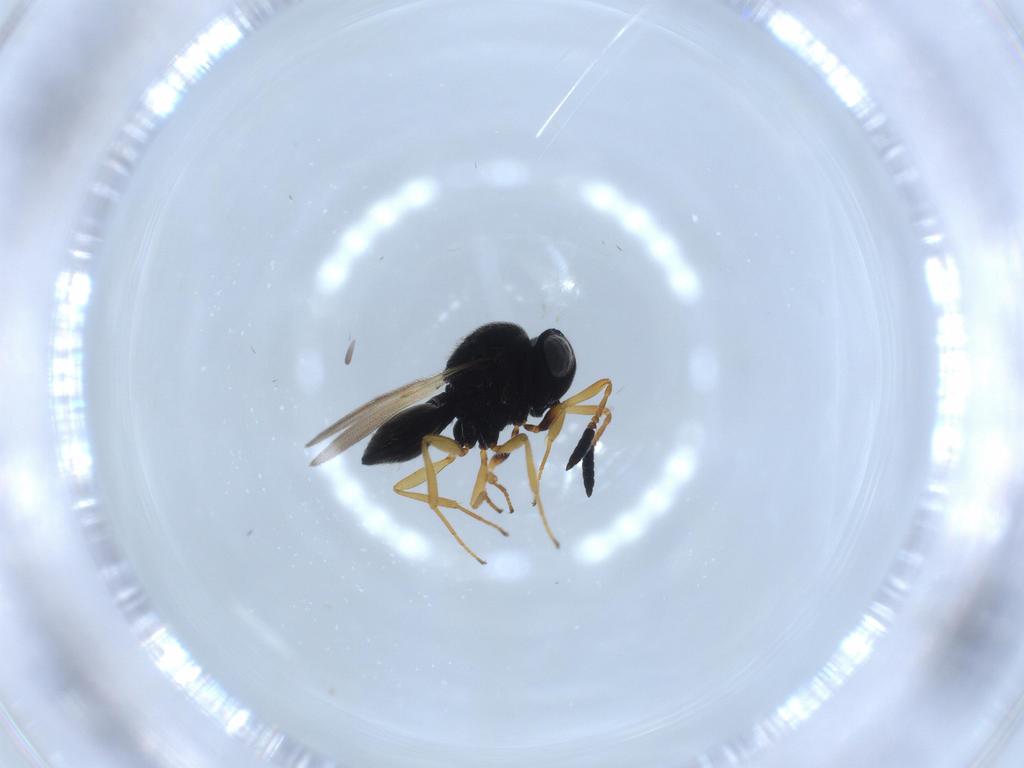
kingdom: Animalia
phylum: Arthropoda
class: Insecta
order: Hymenoptera
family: Scelionidae
